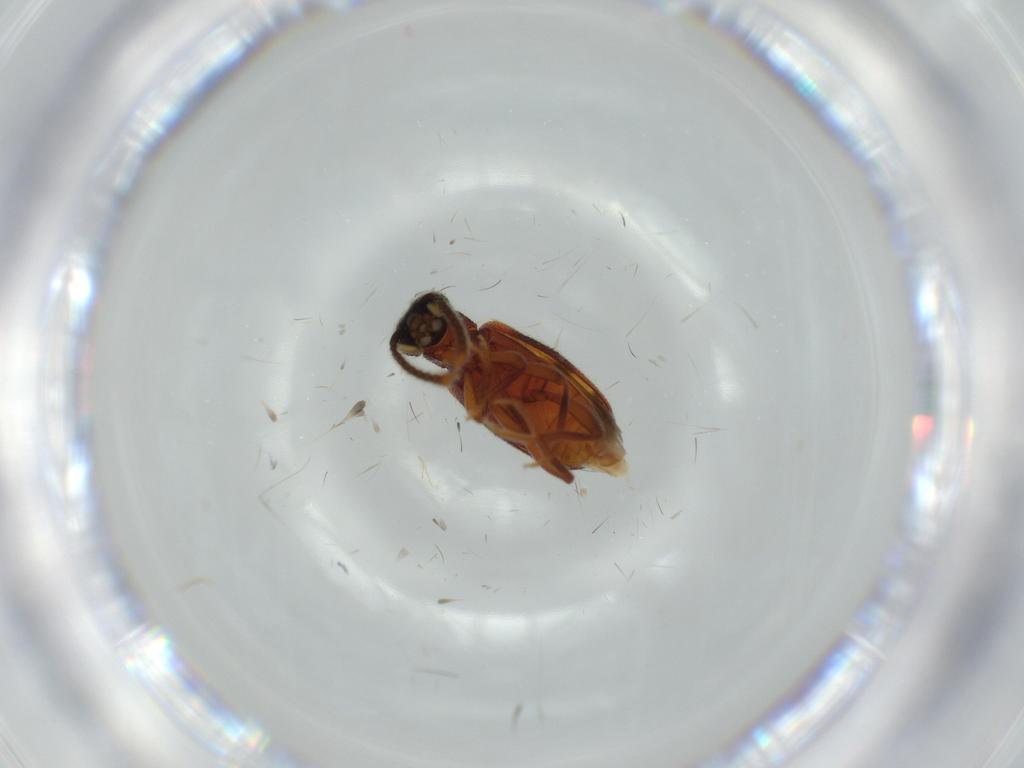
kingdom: Animalia
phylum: Arthropoda
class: Insecta
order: Coleoptera
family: Aderidae
